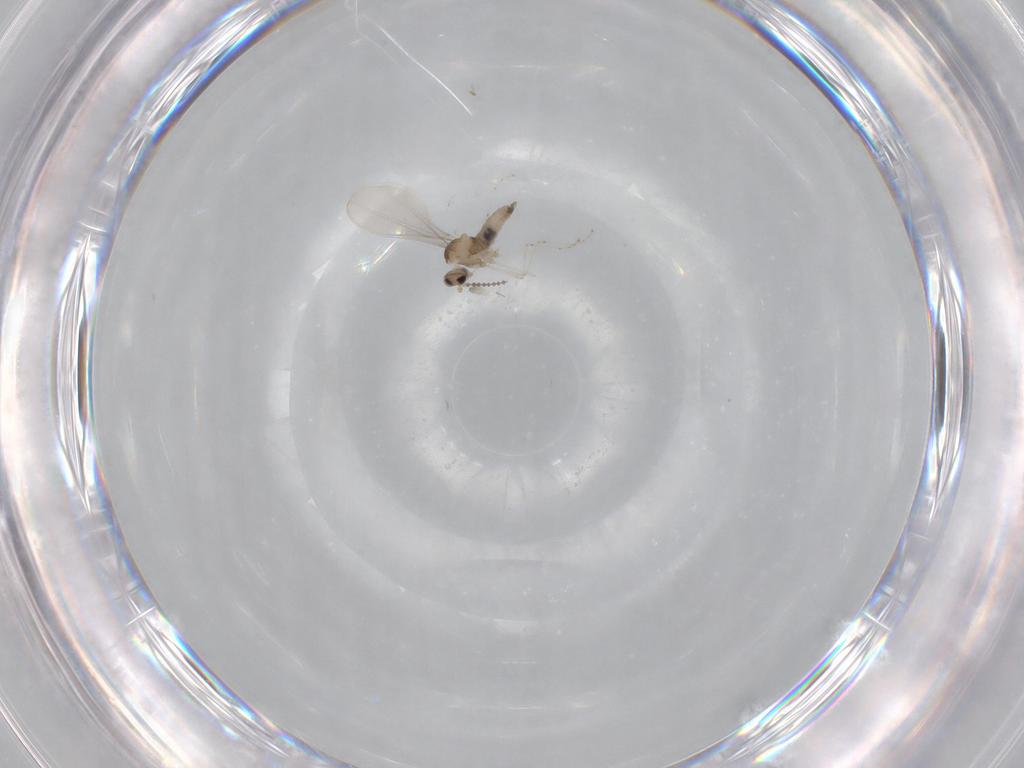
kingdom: Animalia
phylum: Arthropoda
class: Insecta
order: Diptera
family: Cecidomyiidae
